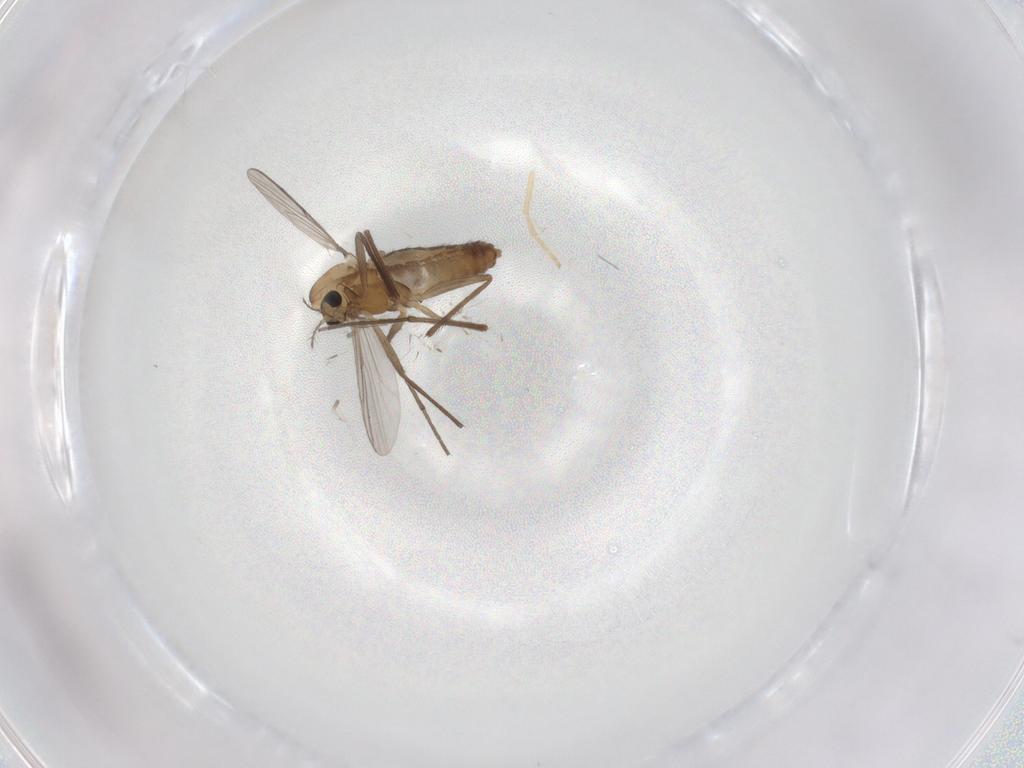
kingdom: Animalia
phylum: Arthropoda
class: Insecta
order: Diptera
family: Chironomidae
